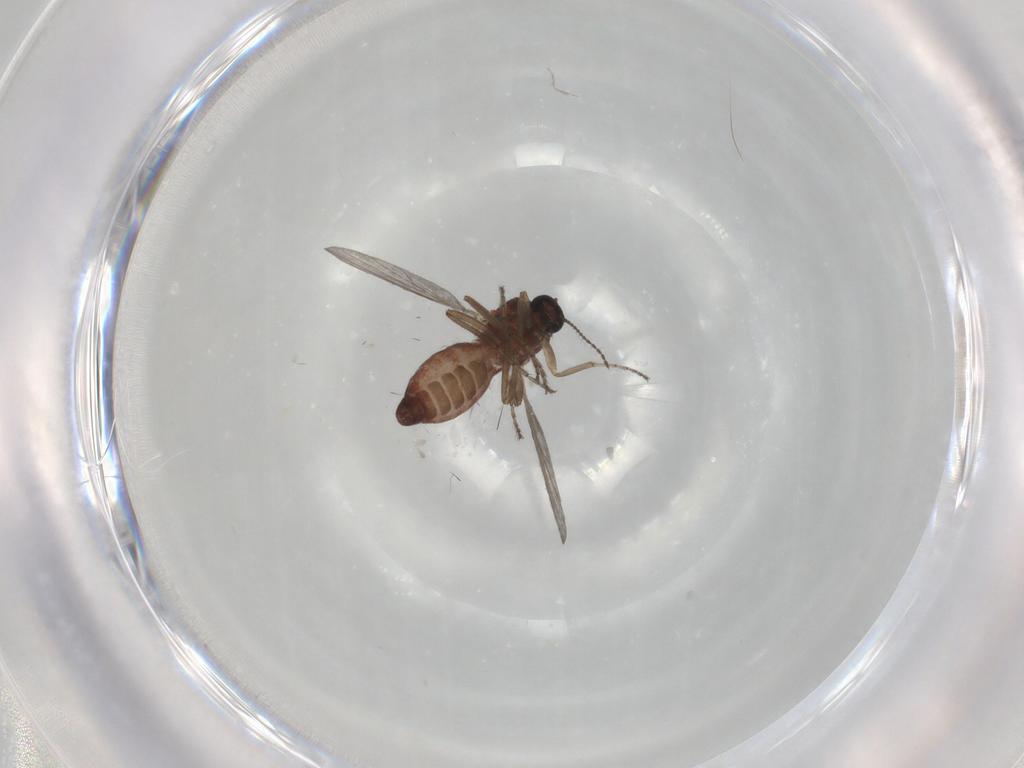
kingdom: Animalia
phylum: Arthropoda
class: Insecta
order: Diptera
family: Ceratopogonidae
